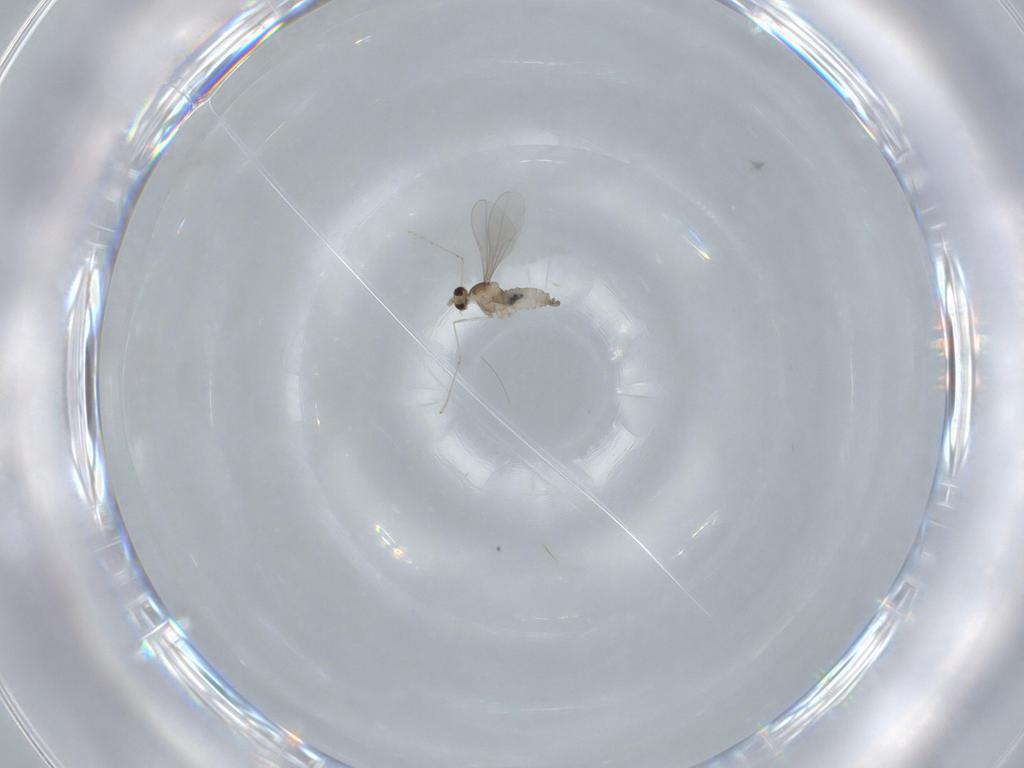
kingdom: Animalia
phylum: Arthropoda
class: Insecta
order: Diptera
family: Cecidomyiidae
